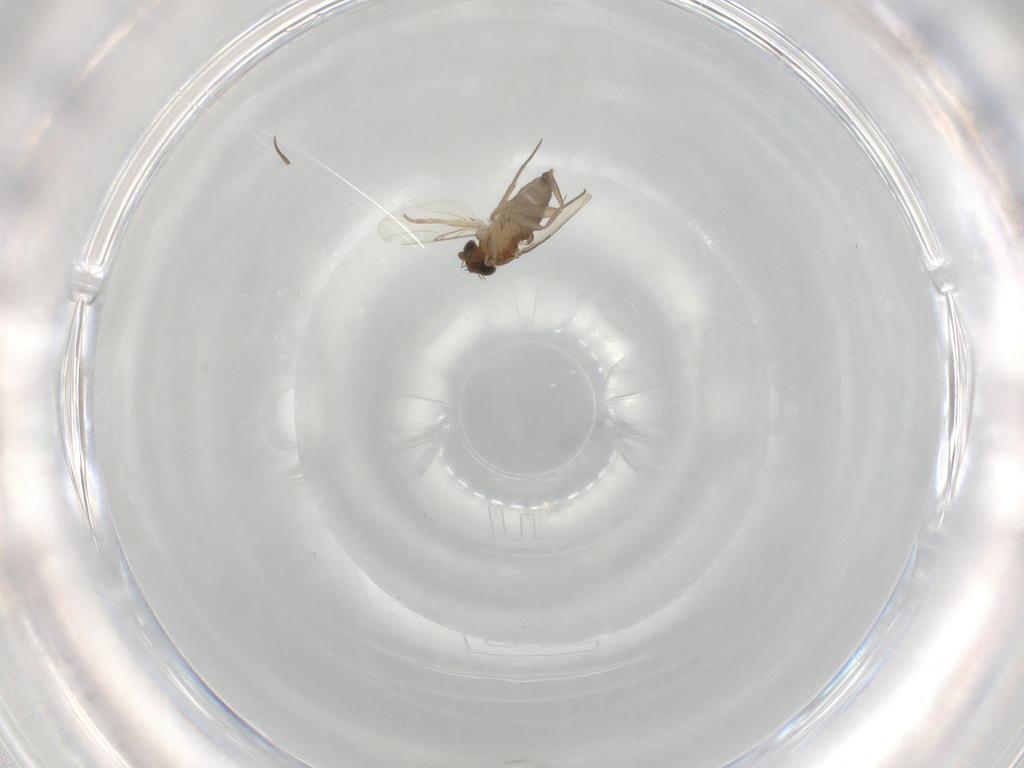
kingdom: Animalia
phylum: Arthropoda
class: Insecta
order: Diptera
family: Phoridae
